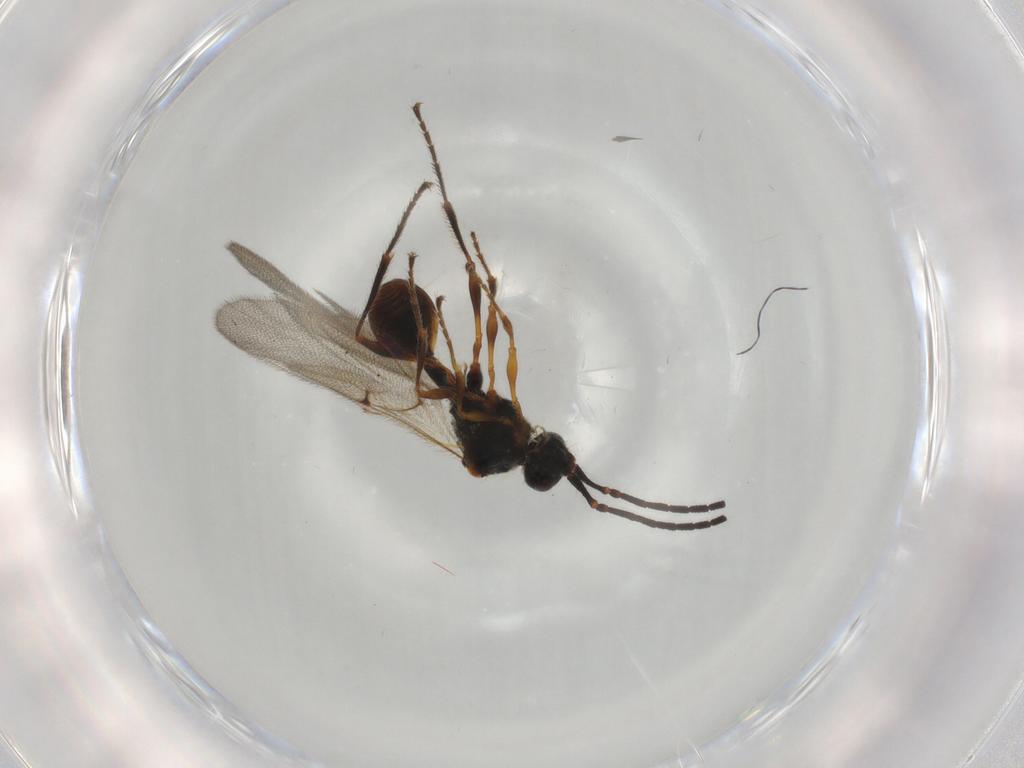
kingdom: Animalia
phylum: Arthropoda
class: Insecta
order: Hymenoptera
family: Diapriidae
